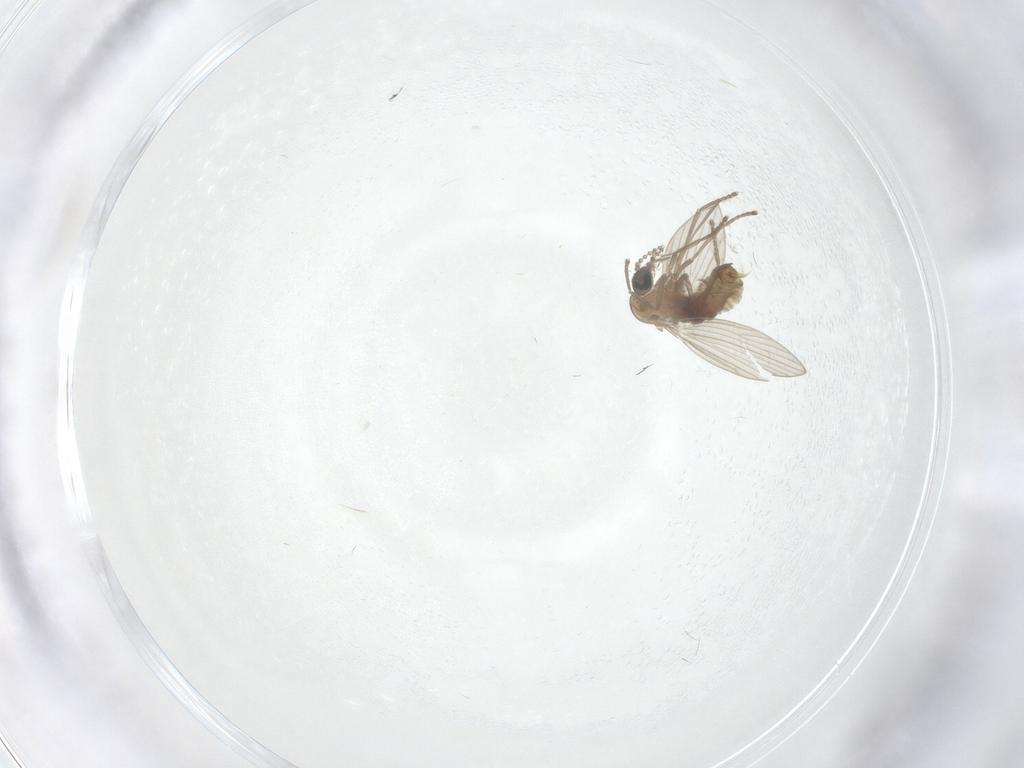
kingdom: Animalia
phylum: Arthropoda
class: Insecta
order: Diptera
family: Psychodidae
